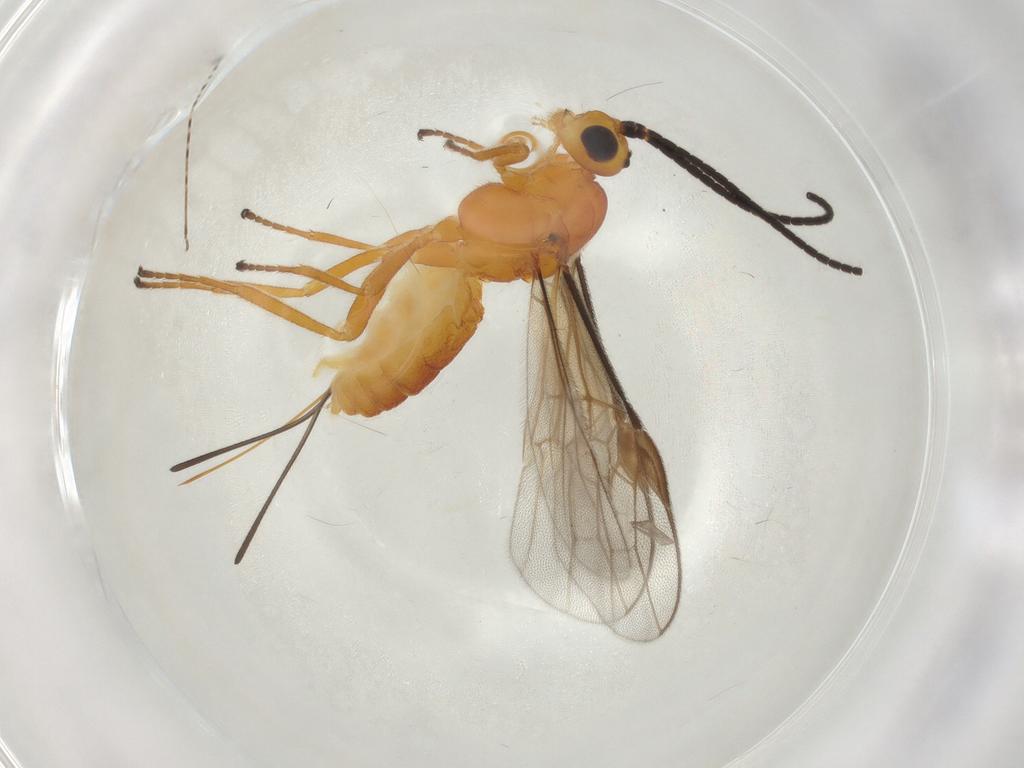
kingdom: Animalia
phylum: Arthropoda
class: Insecta
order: Hymenoptera
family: Braconidae
